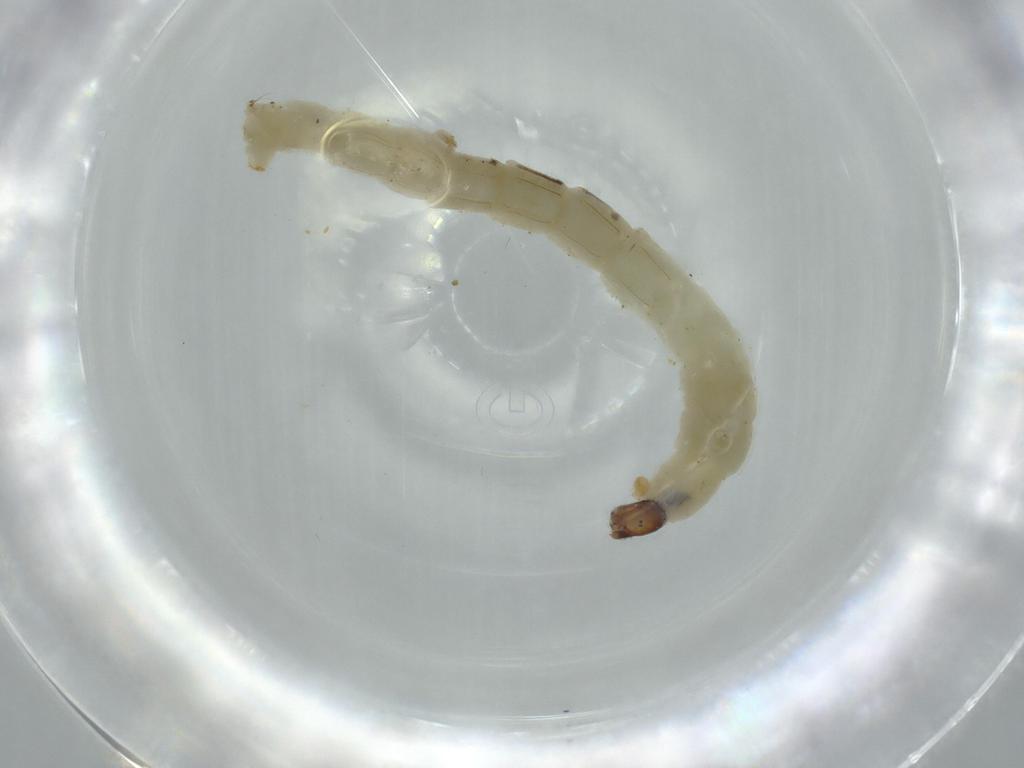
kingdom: Animalia
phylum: Arthropoda
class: Insecta
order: Diptera
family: Chironomidae
